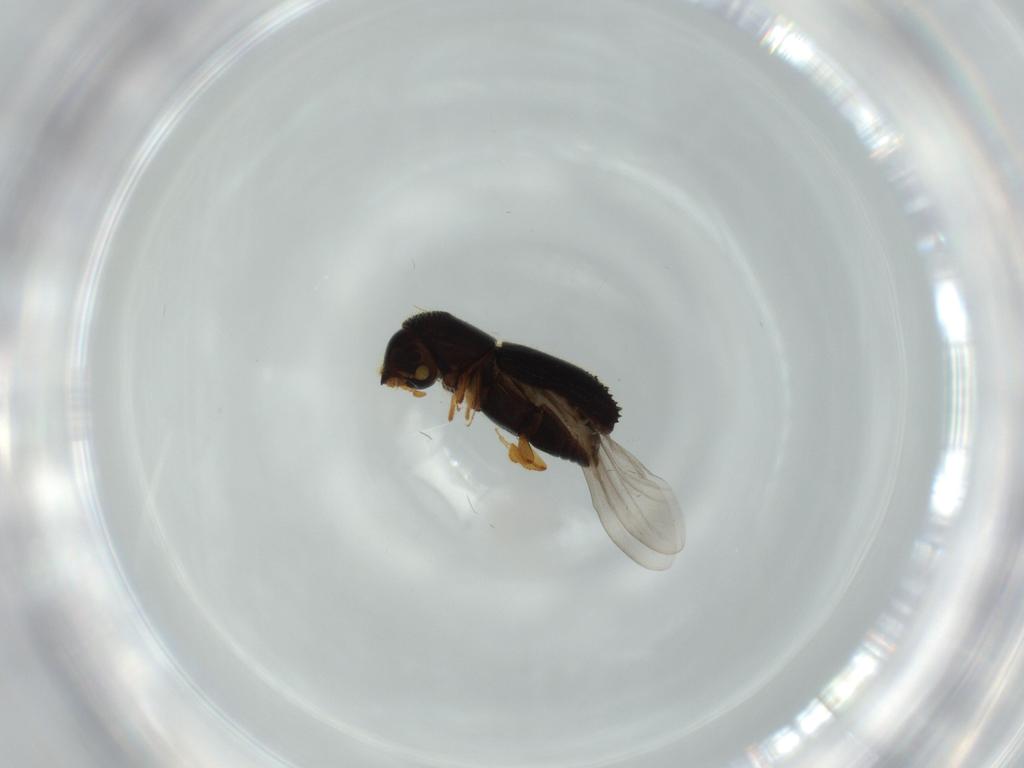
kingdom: Animalia
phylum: Arthropoda
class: Insecta
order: Coleoptera
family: Curculionidae
